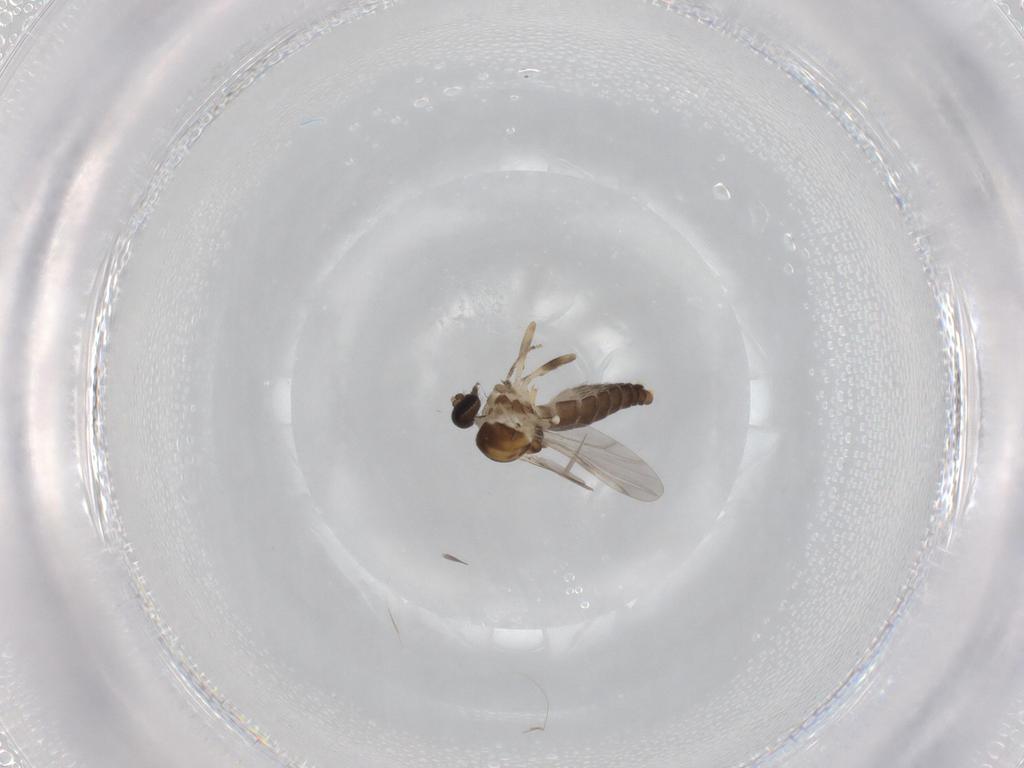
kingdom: Animalia
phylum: Arthropoda
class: Insecta
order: Diptera
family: Ceratopogonidae
